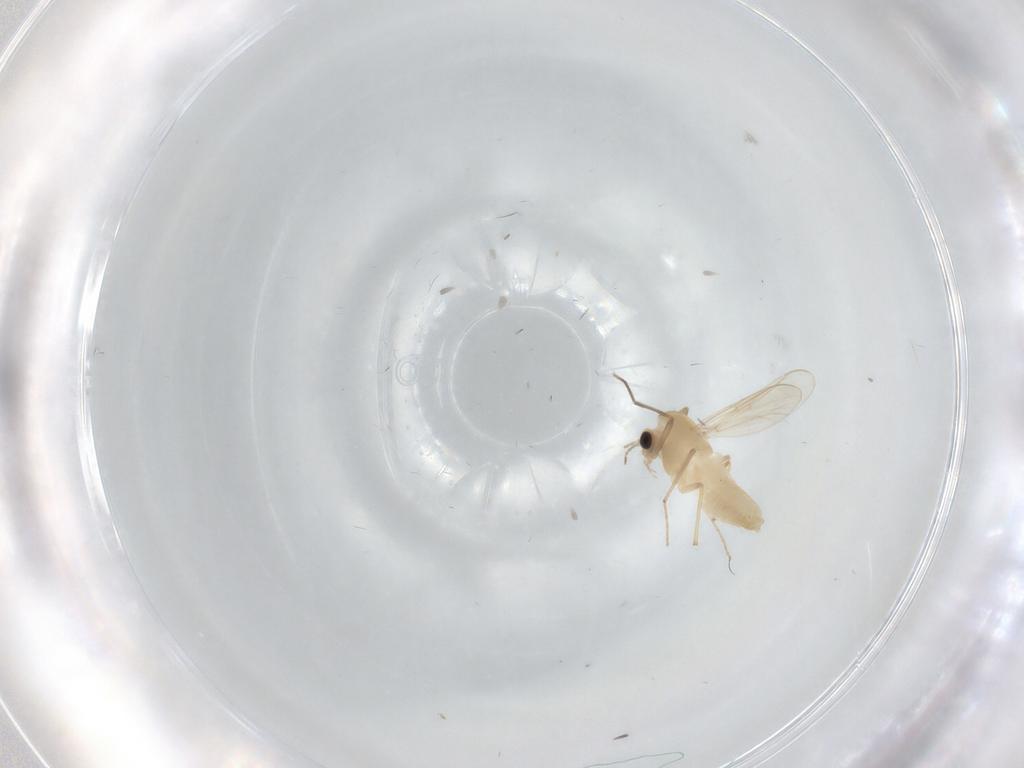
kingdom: Animalia
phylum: Arthropoda
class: Insecta
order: Diptera
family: Chironomidae
